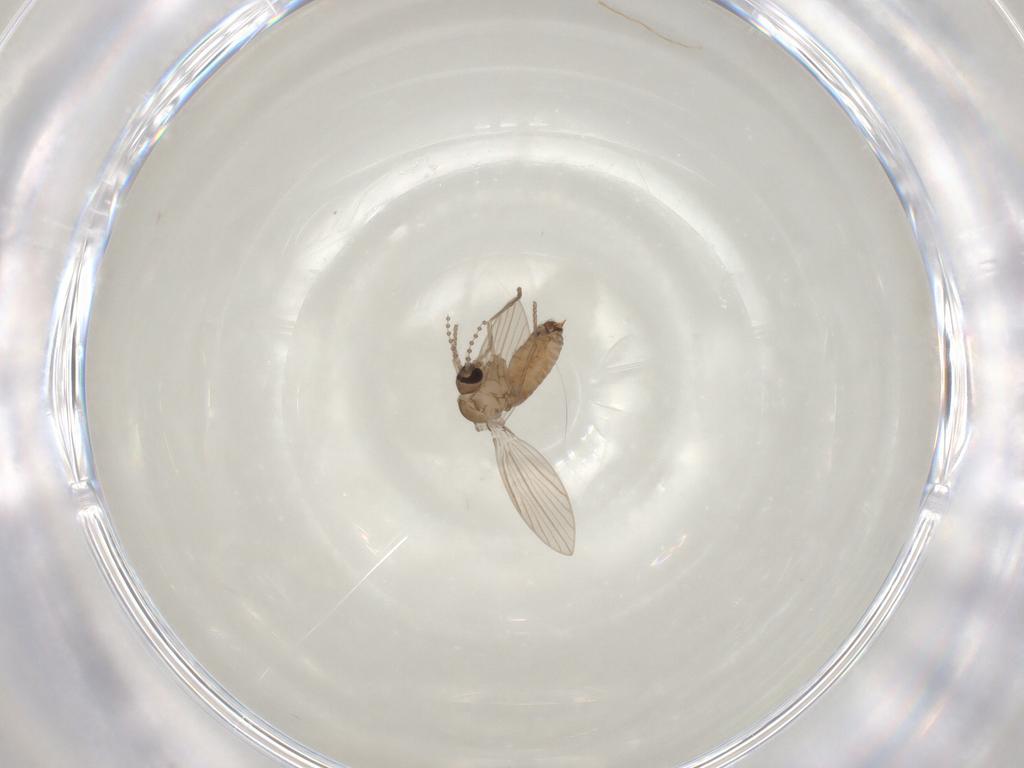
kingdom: Animalia
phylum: Arthropoda
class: Insecta
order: Diptera
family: Psychodidae
